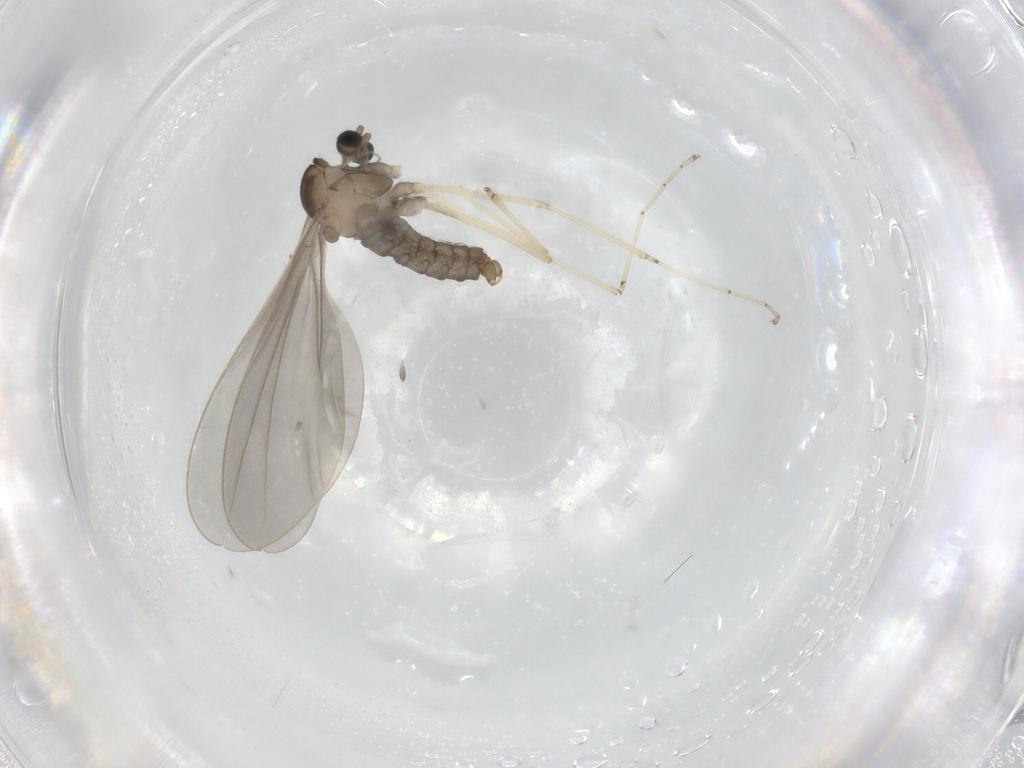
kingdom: Animalia
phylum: Arthropoda
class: Insecta
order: Diptera
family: Cecidomyiidae
